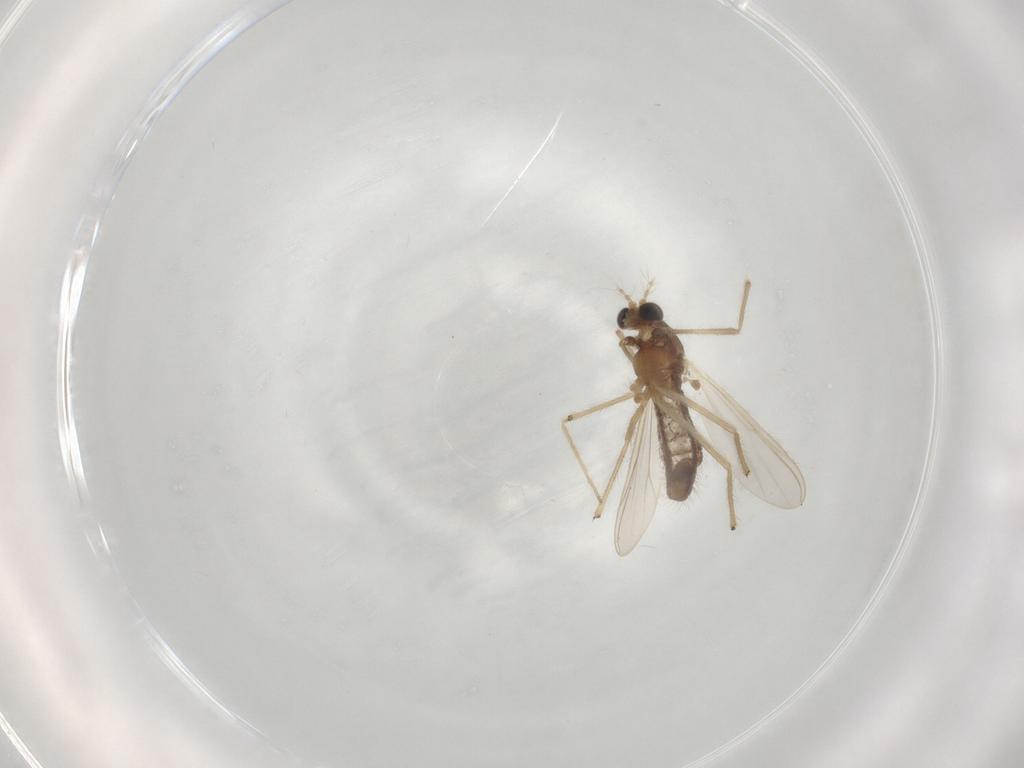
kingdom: Animalia
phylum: Arthropoda
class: Insecta
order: Diptera
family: Chironomidae
